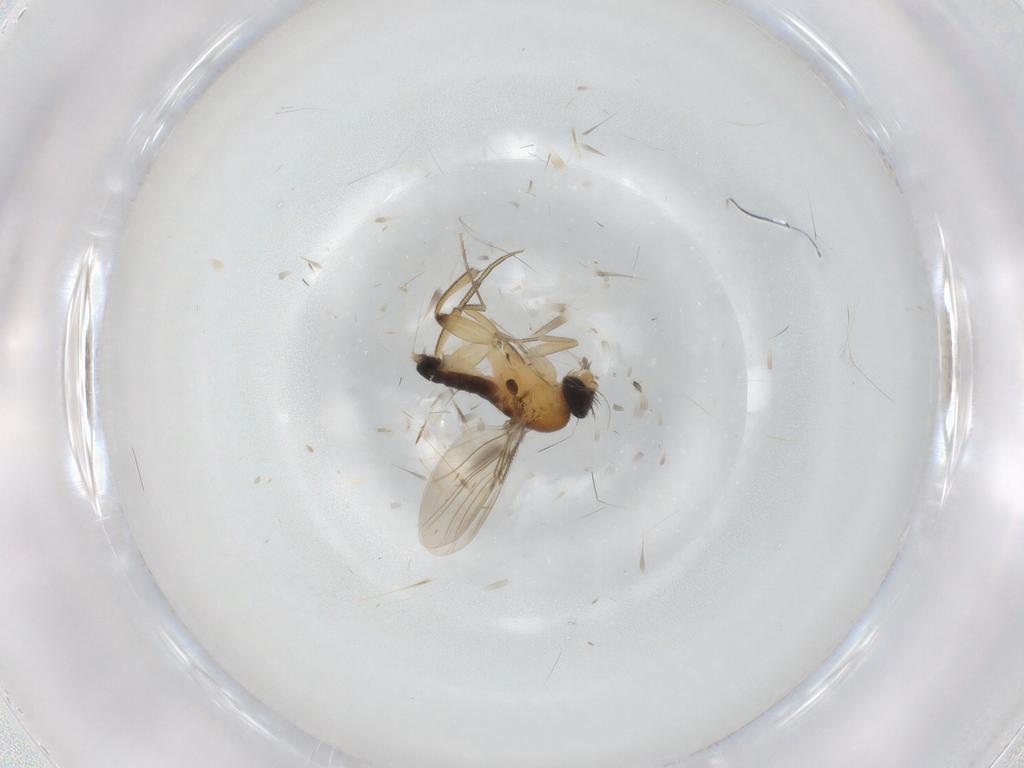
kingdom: Animalia
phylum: Arthropoda
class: Insecta
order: Diptera
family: Phoridae
